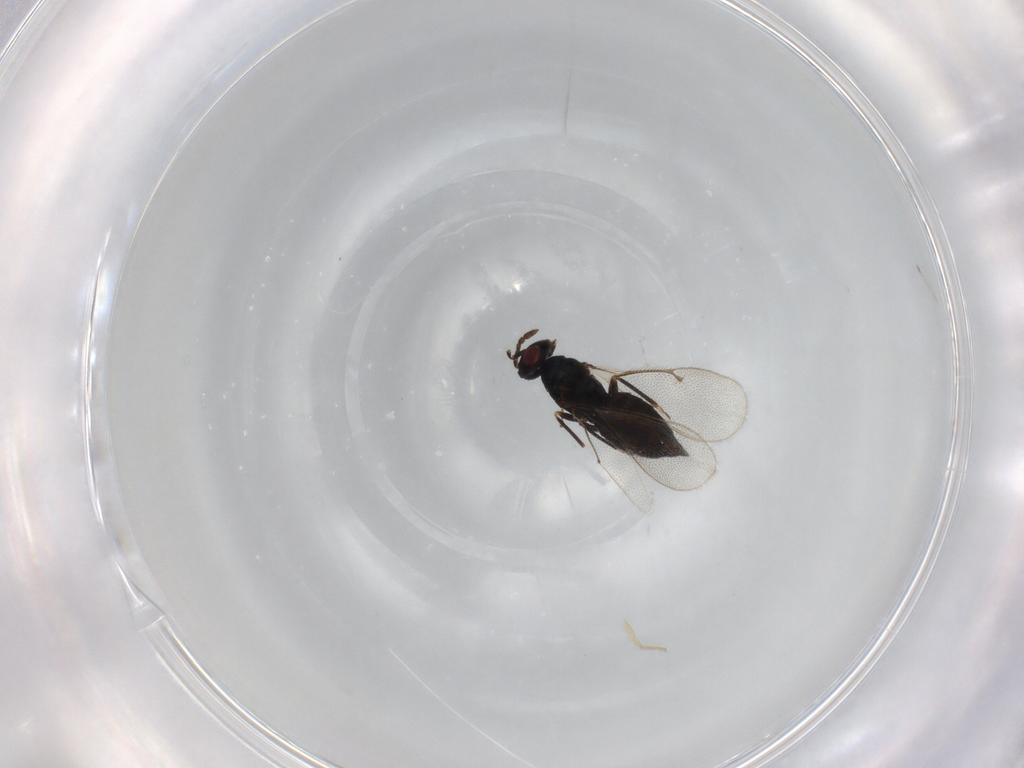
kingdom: Animalia
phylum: Arthropoda
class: Insecta
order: Hymenoptera
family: Eulophidae
